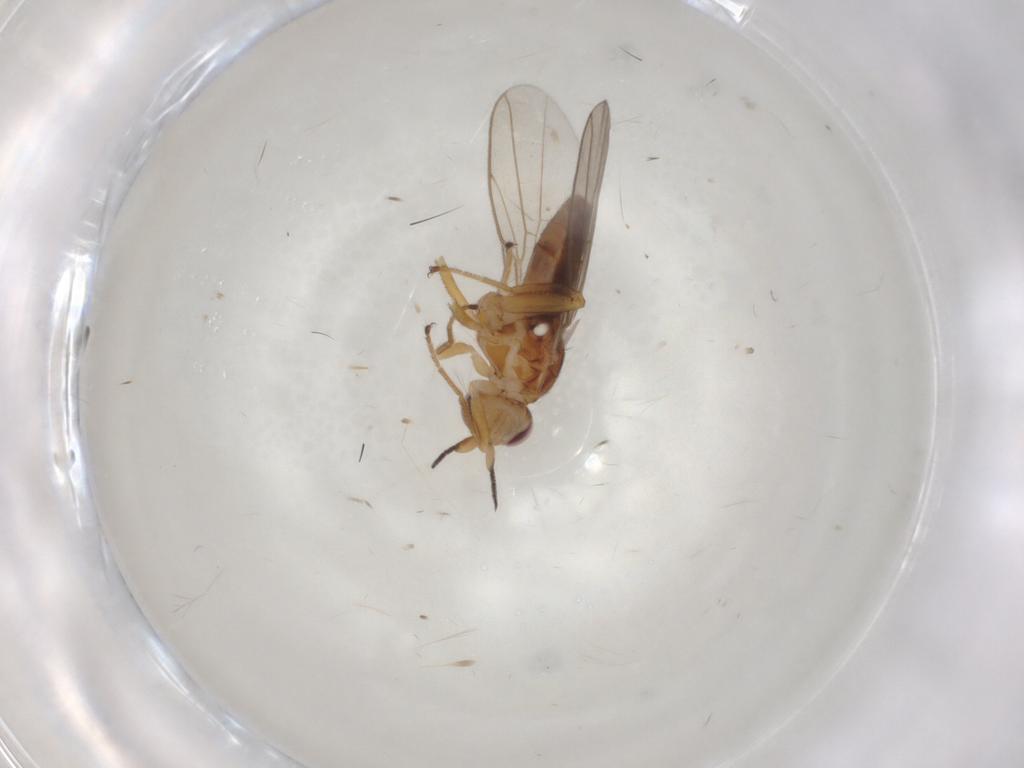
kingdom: Animalia
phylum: Arthropoda
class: Insecta
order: Diptera
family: Chloropidae
